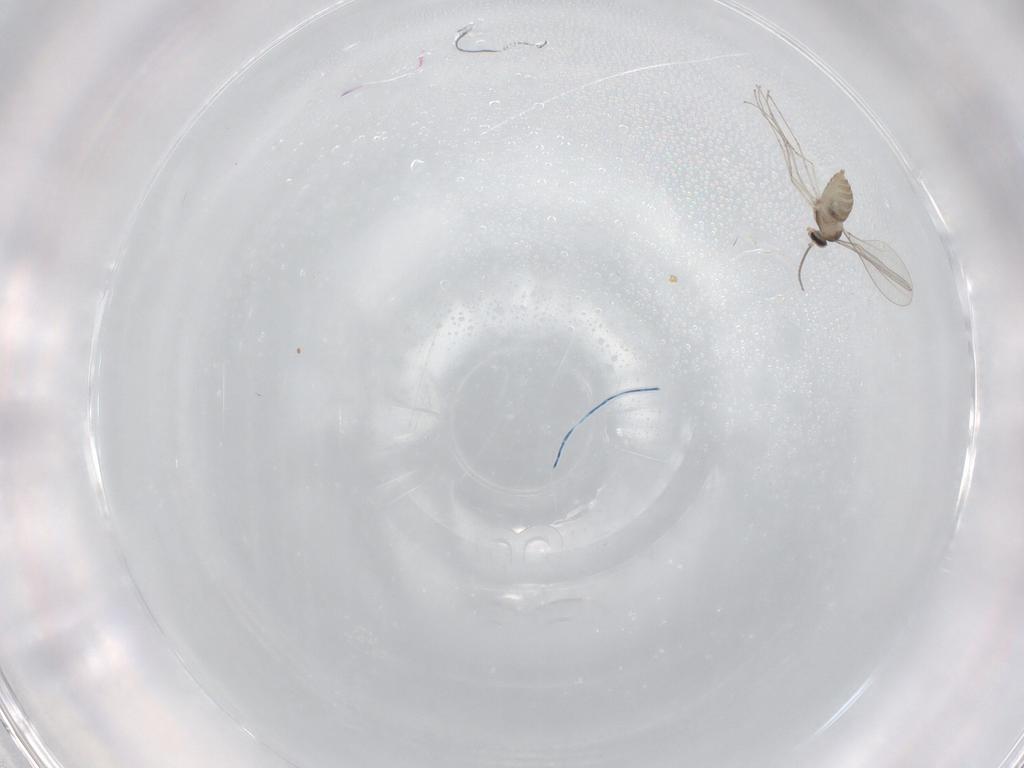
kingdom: Animalia
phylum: Arthropoda
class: Insecta
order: Diptera
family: Cecidomyiidae
